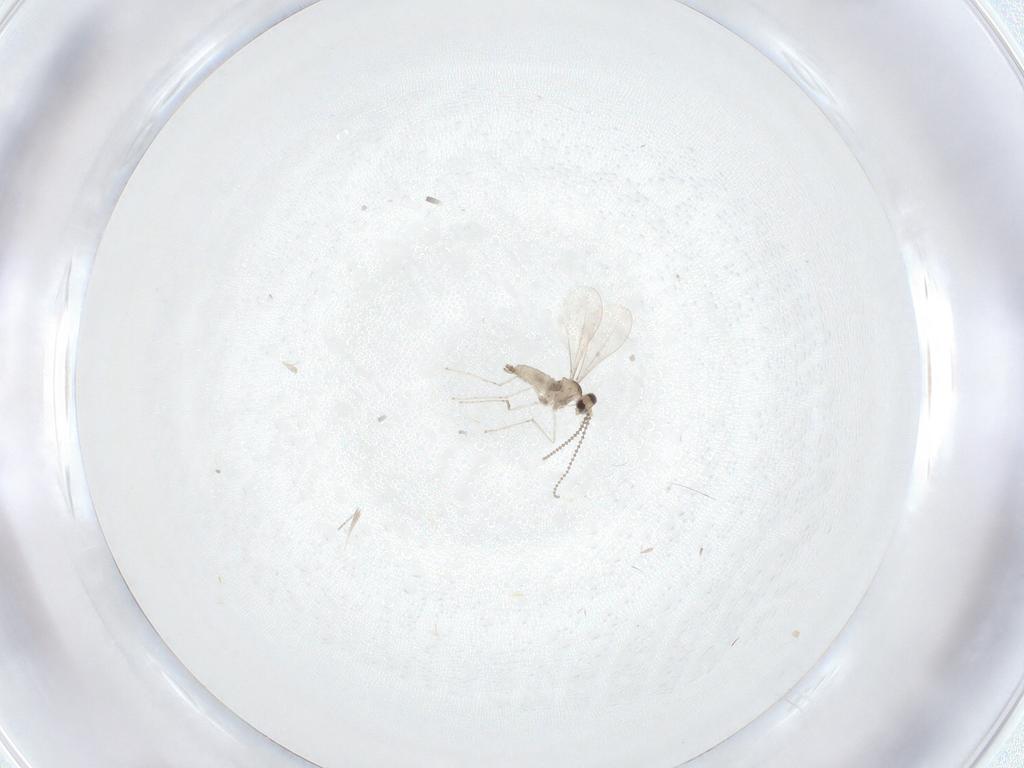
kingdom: Animalia
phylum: Arthropoda
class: Insecta
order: Diptera
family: Cecidomyiidae
